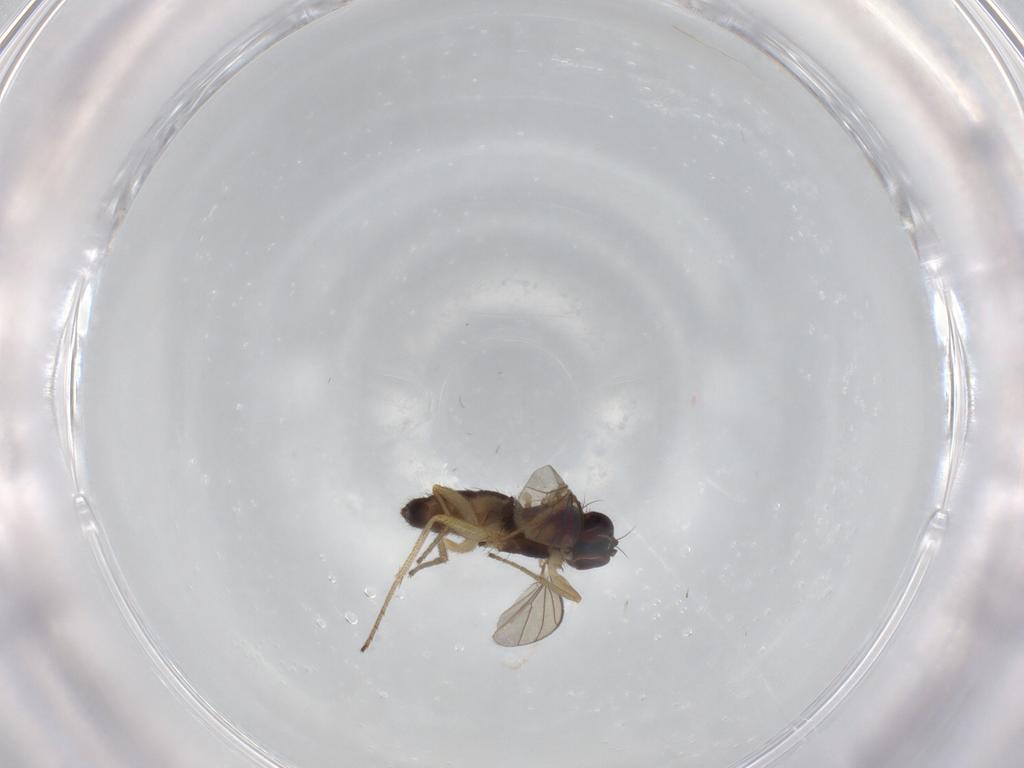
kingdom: Animalia
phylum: Arthropoda
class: Insecta
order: Diptera
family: Dolichopodidae
